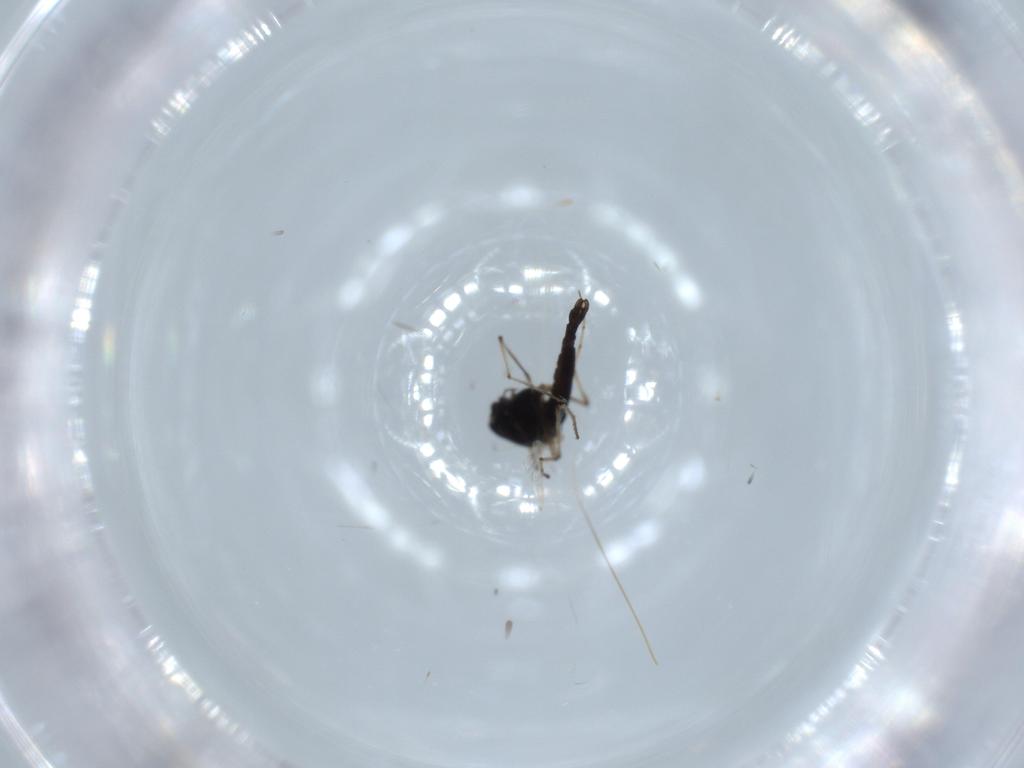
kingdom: Animalia
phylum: Arthropoda
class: Insecta
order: Diptera
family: Chironomidae
